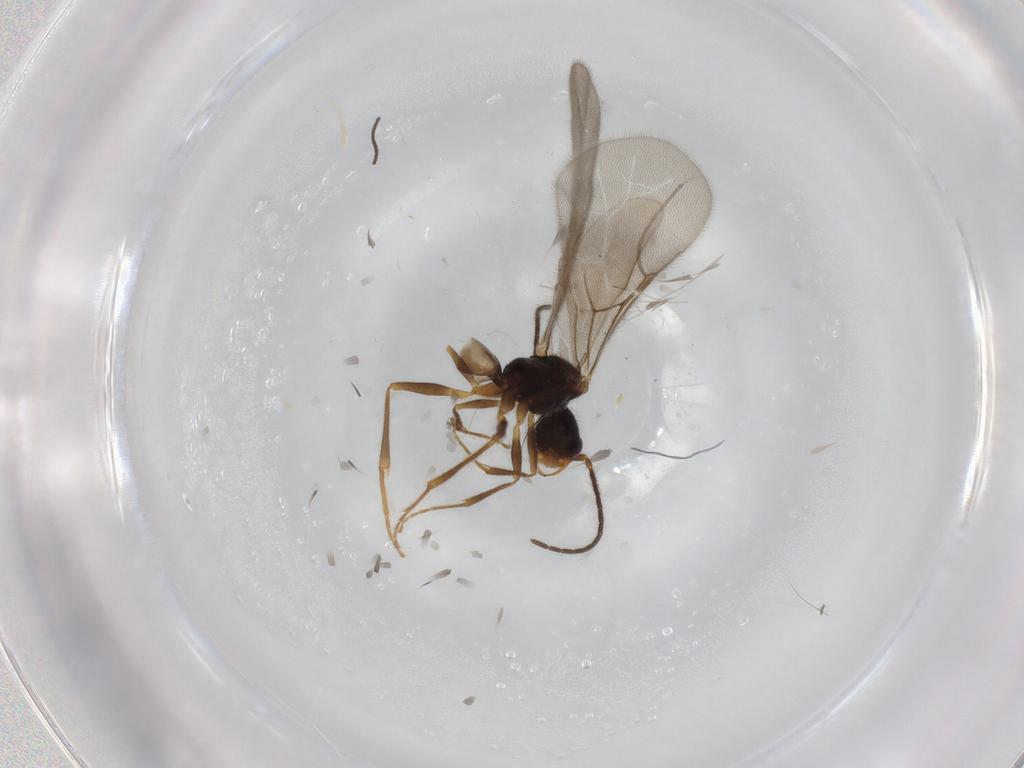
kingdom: Animalia
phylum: Arthropoda
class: Insecta
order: Hymenoptera
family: Bethylidae
